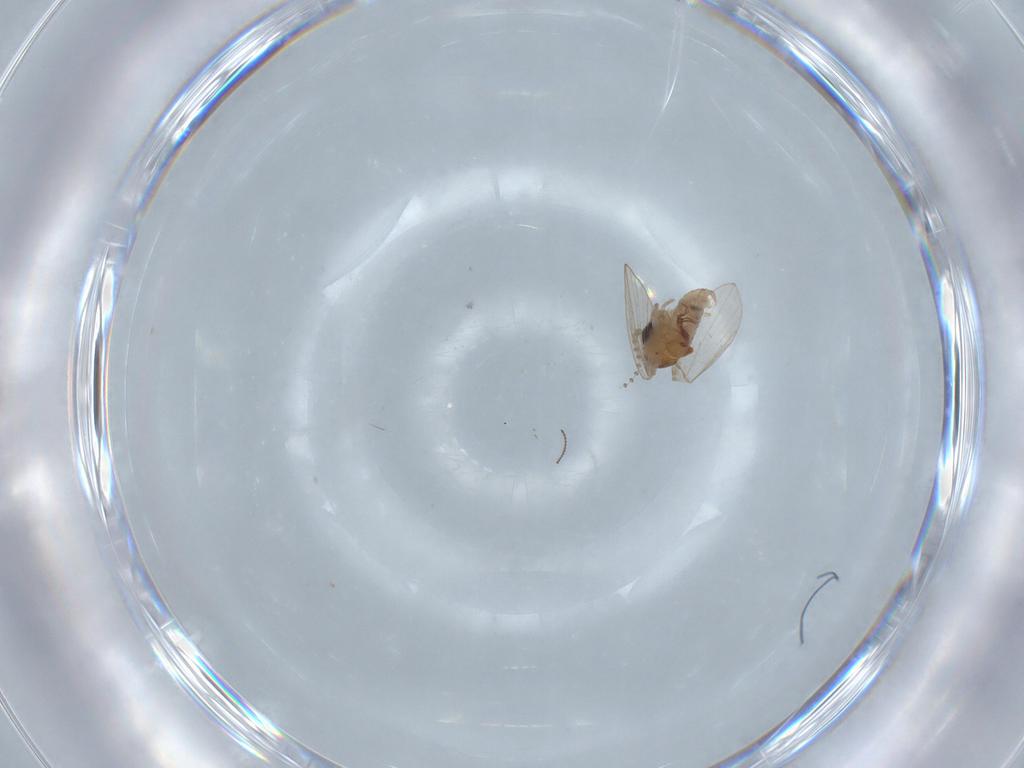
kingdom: Animalia
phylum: Arthropoda
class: Insecta
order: Diptera
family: Psychodidae
